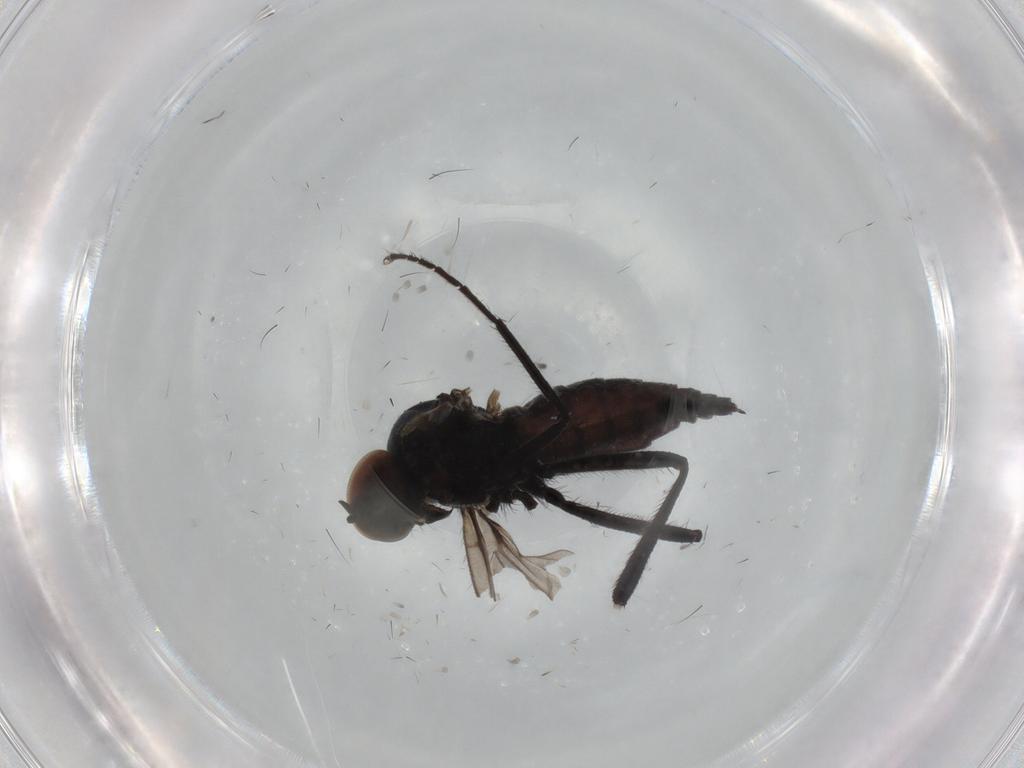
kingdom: Animalia
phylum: Arthropoda
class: Insecta
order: Diptera
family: Hybotidae
